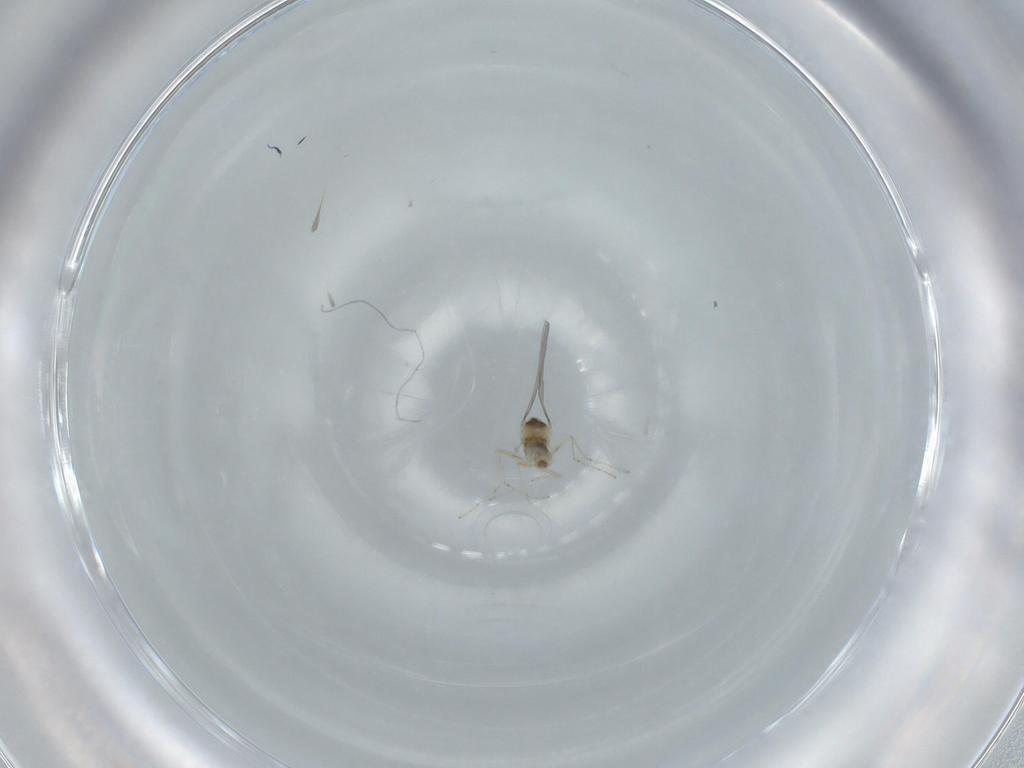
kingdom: Animalia
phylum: Arthropoda
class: Insecta
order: Diptera
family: Cecidomyiidae
